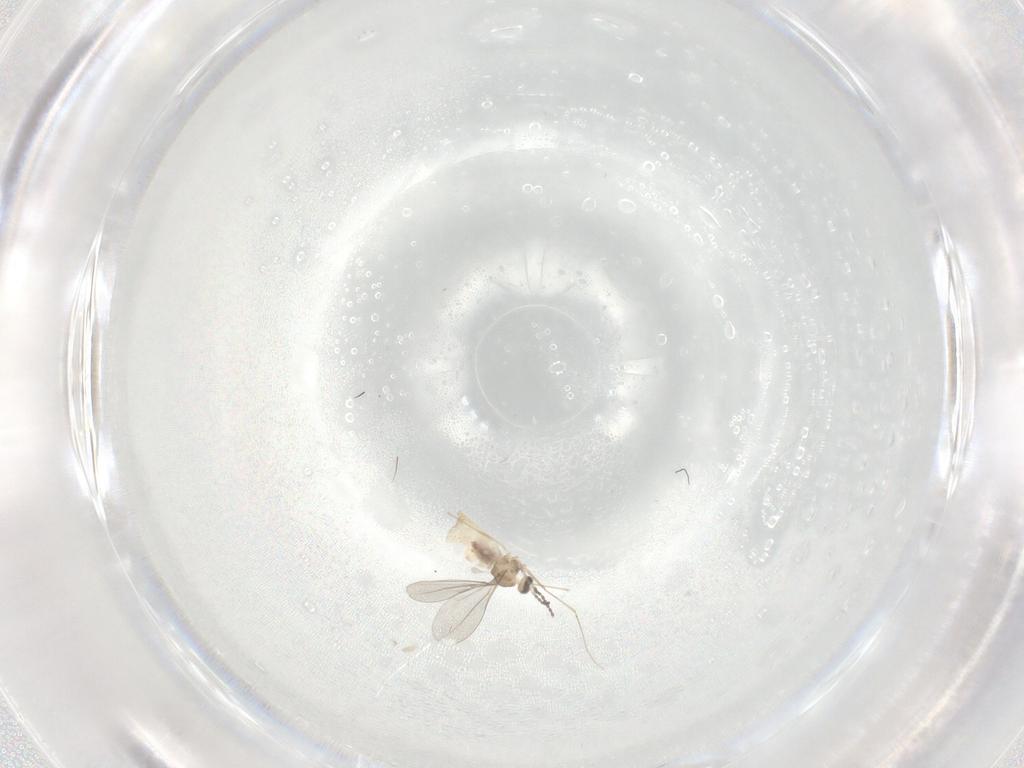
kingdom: Animalia
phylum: Arthropoda
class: Insecta
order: Diptera
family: Cecidomyiidae
